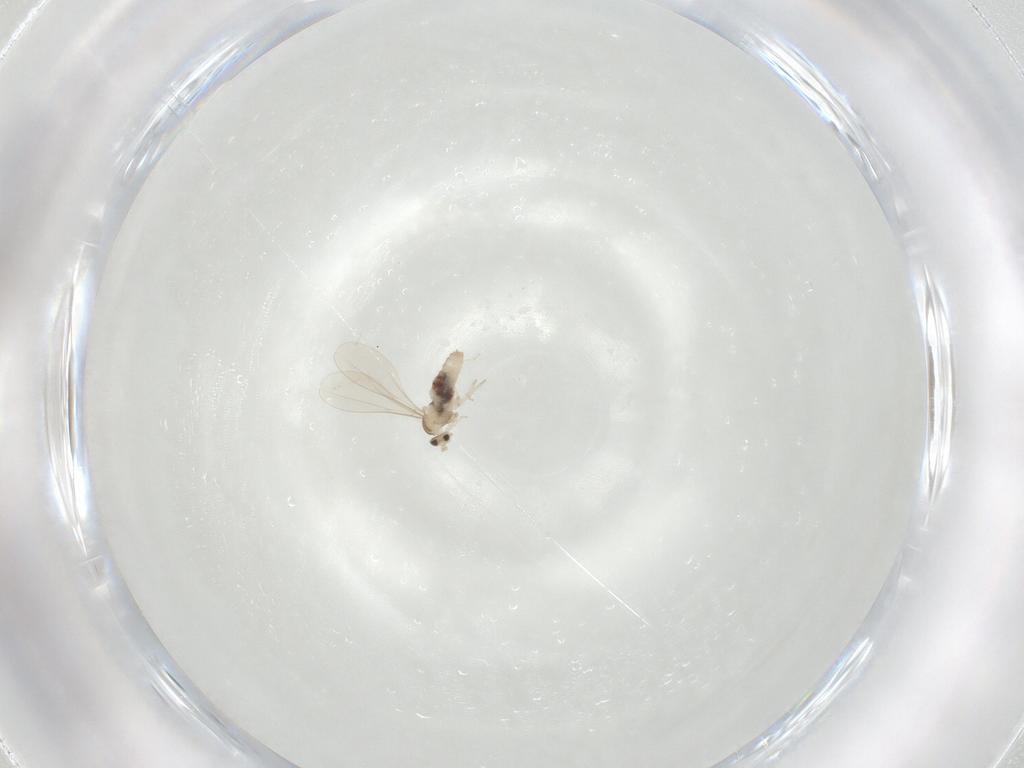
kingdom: Animalia
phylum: Arthropoda
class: Insecta
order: Diptera
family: Cecidomyiidae
